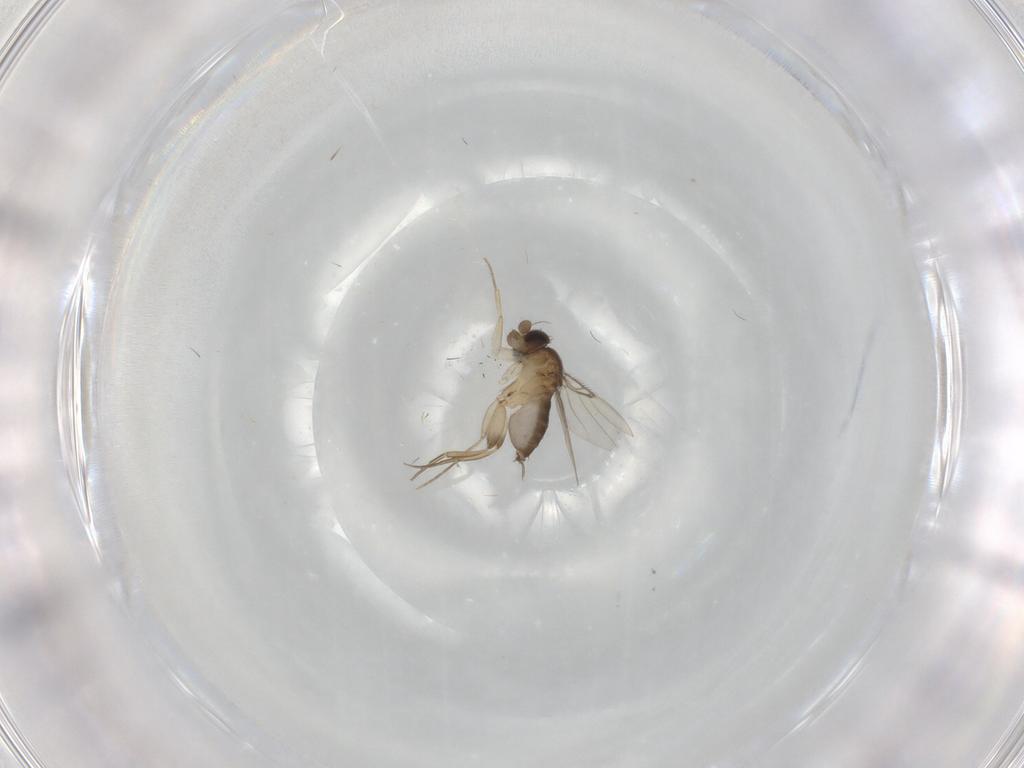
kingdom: Animalia
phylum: Arthropoda
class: Insecta
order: Diptera
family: Phoridae
